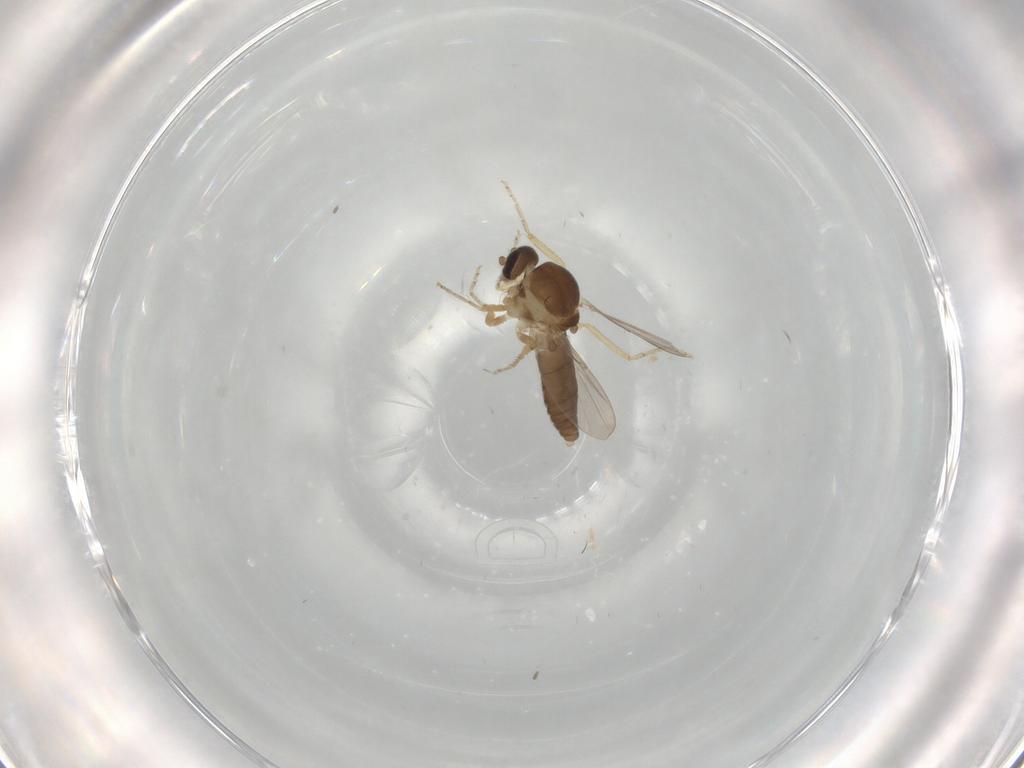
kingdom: Animalia
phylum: Arthropoda
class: Insecta
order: Diptera
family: Ceratopogonidae
